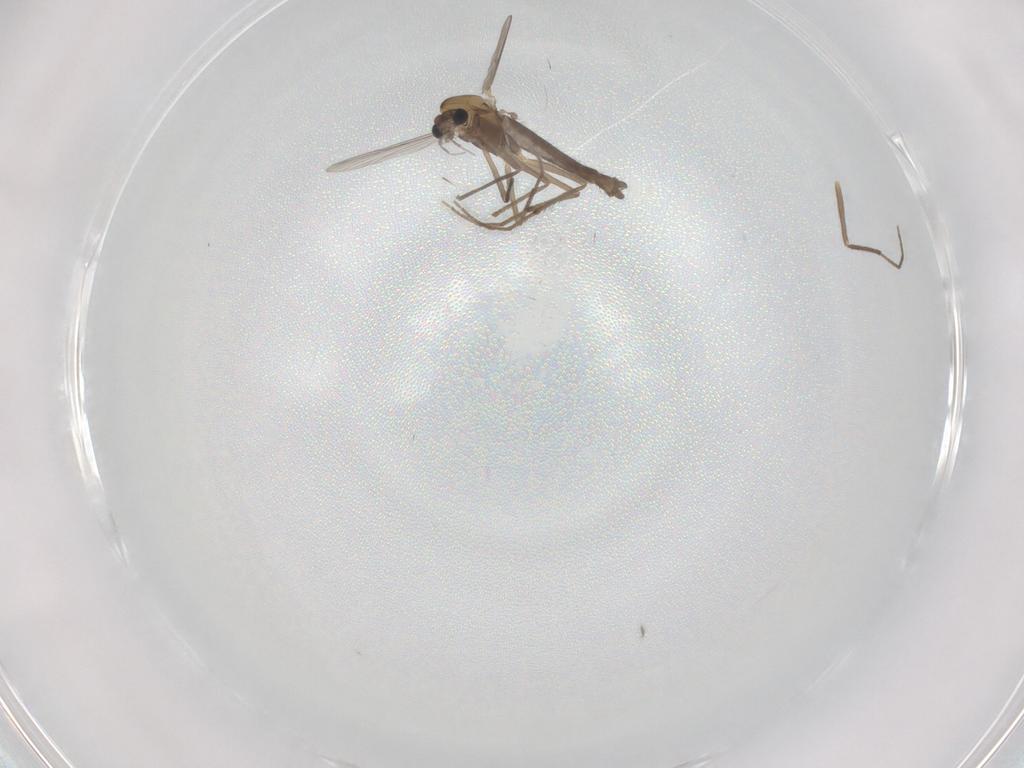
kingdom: Animalia
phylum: Arthropoda
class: Insecta
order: Diptera
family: Chironomidae
